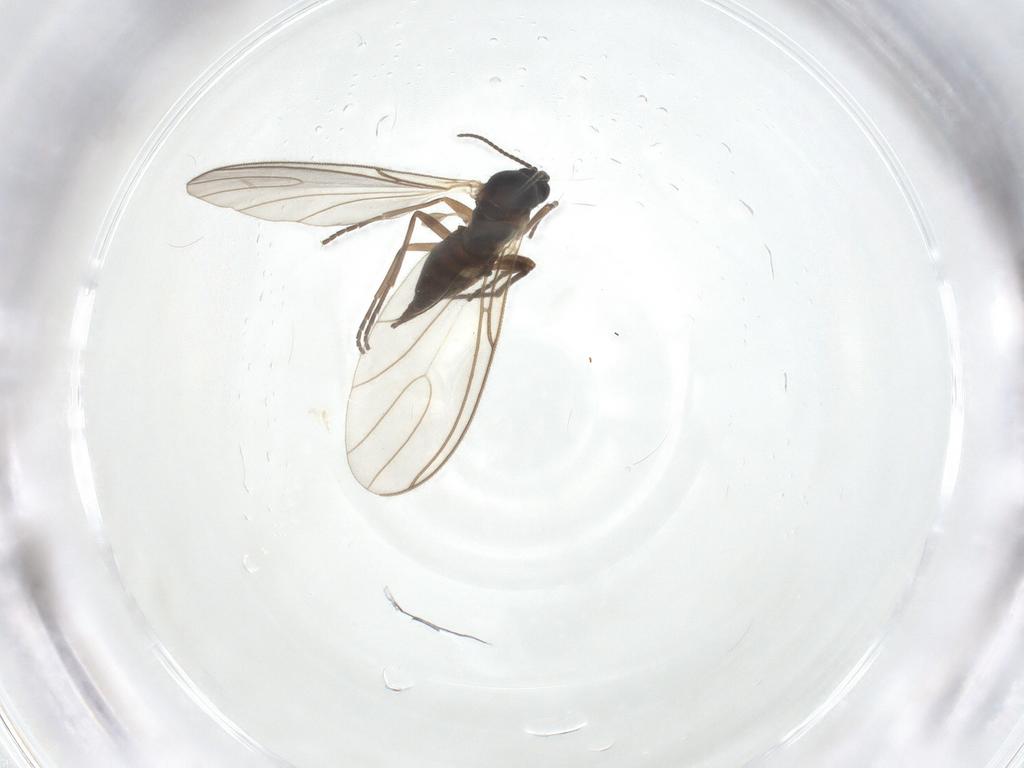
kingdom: Animalia
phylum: Arthropoda
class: Insecta
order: Diptera
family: Sciaridae
